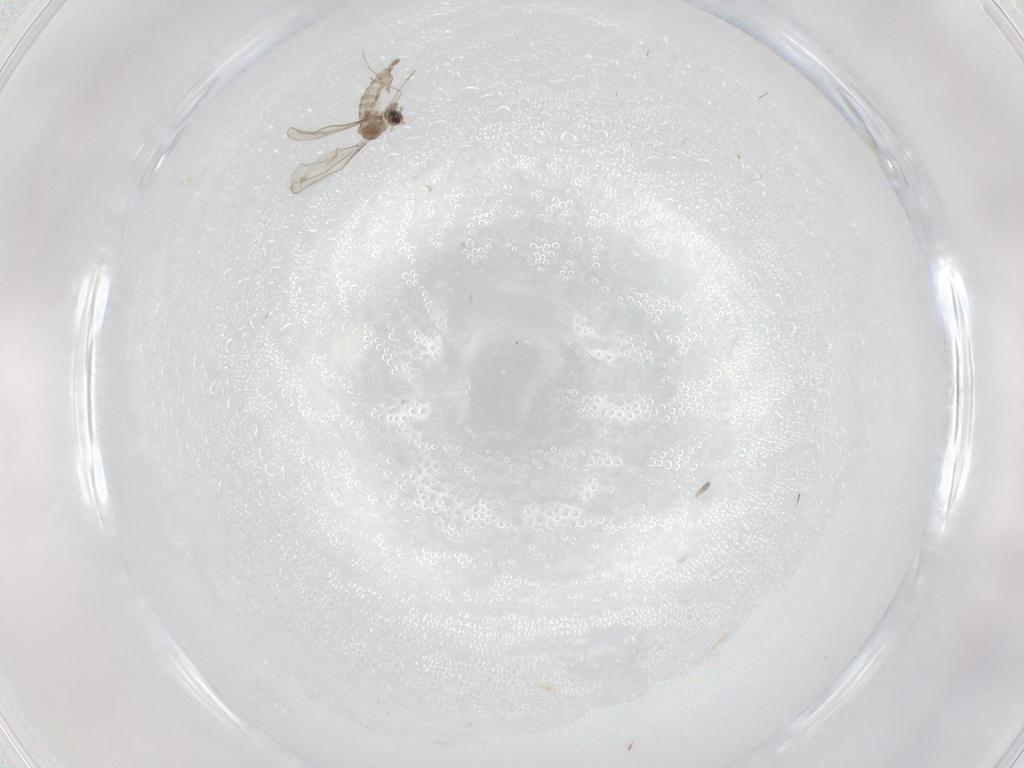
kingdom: Animalia
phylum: Arthropoda
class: Insecta
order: Diptera
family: Cecidomyiidae
